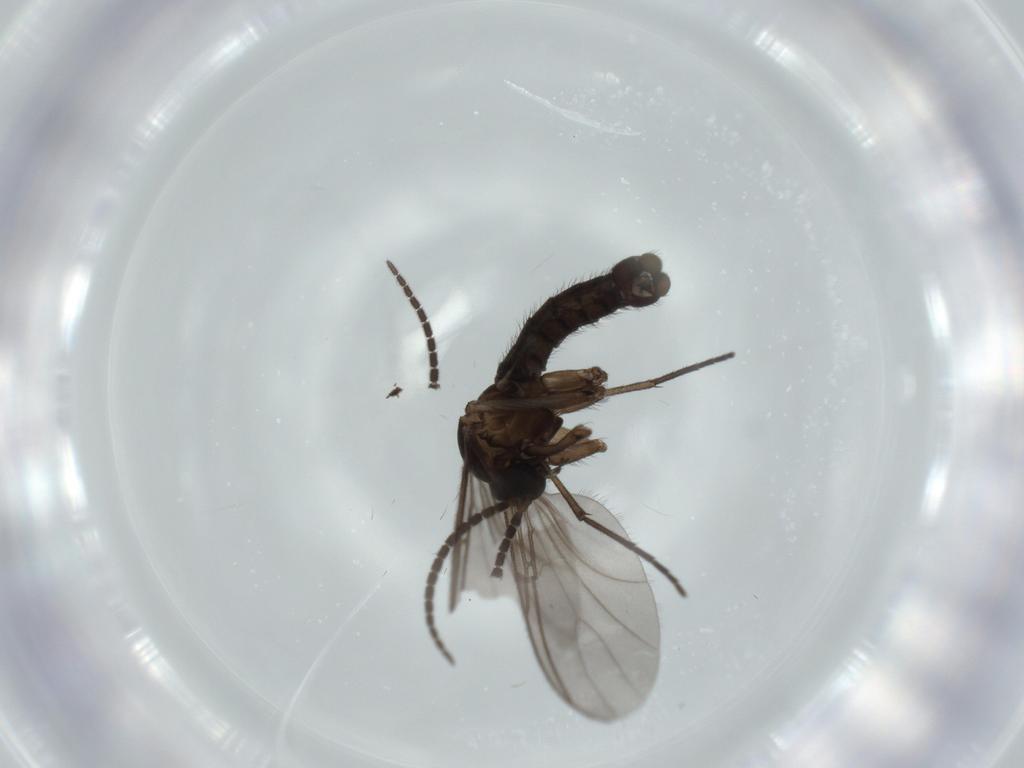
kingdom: Animalia
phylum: Arthropoda
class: Insecta
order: Diptera
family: Sciaridae
